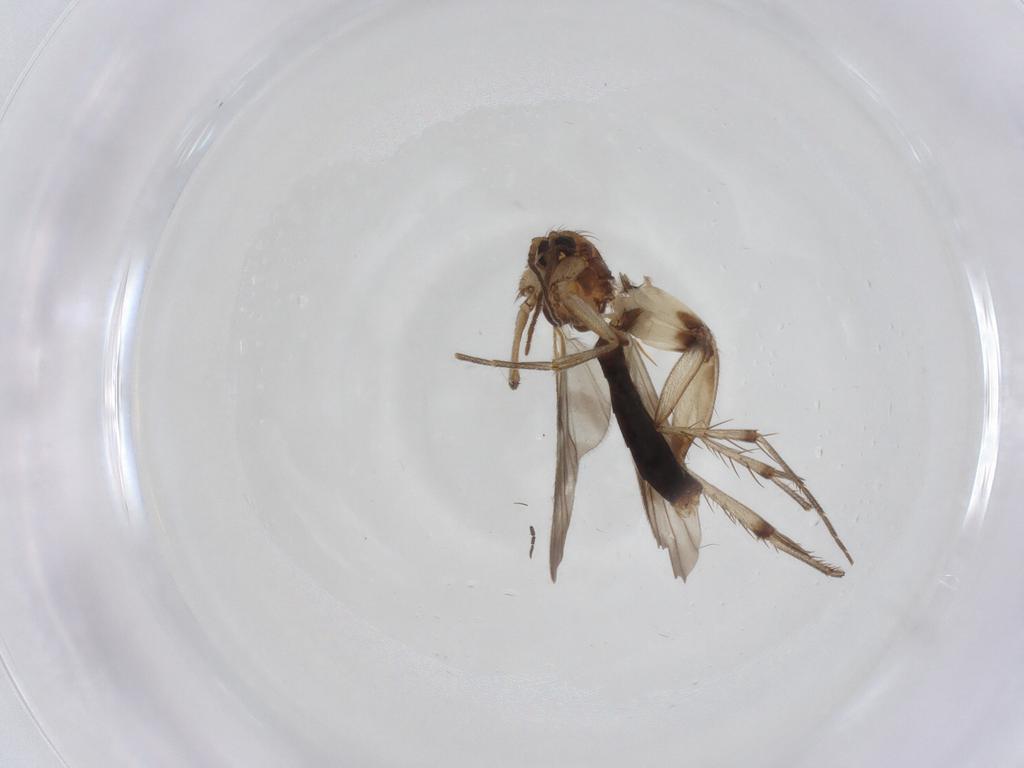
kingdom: Animalia
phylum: Arthropoda
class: Insecta
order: Diptera
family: Mycetophilidae
